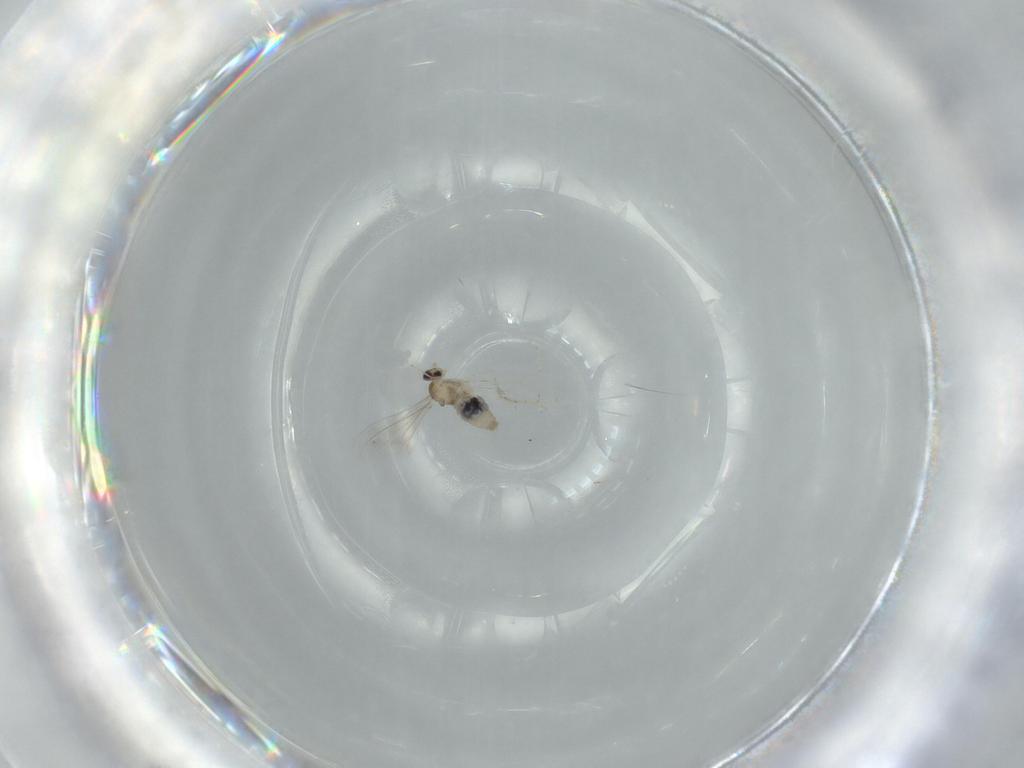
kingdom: Animalia
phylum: Arthropoda
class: Insecta
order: Diptera
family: Cecidomyiidae
